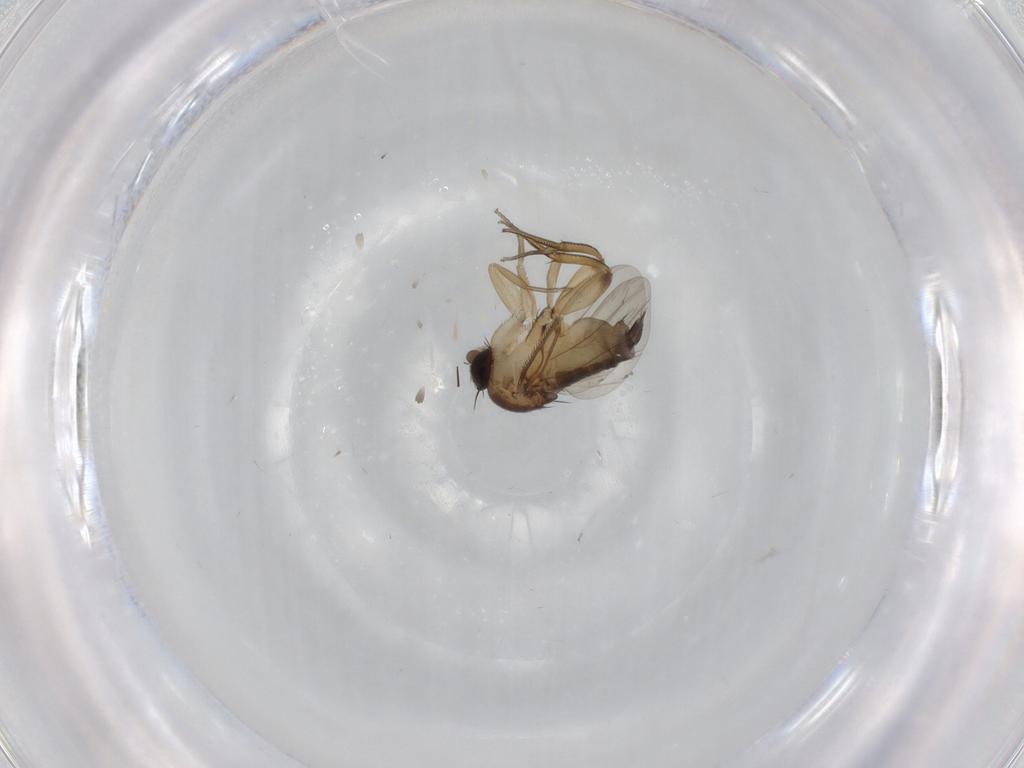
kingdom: Animalia
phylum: Arthropoda
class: Insecta
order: Diptera
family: Phoridae
